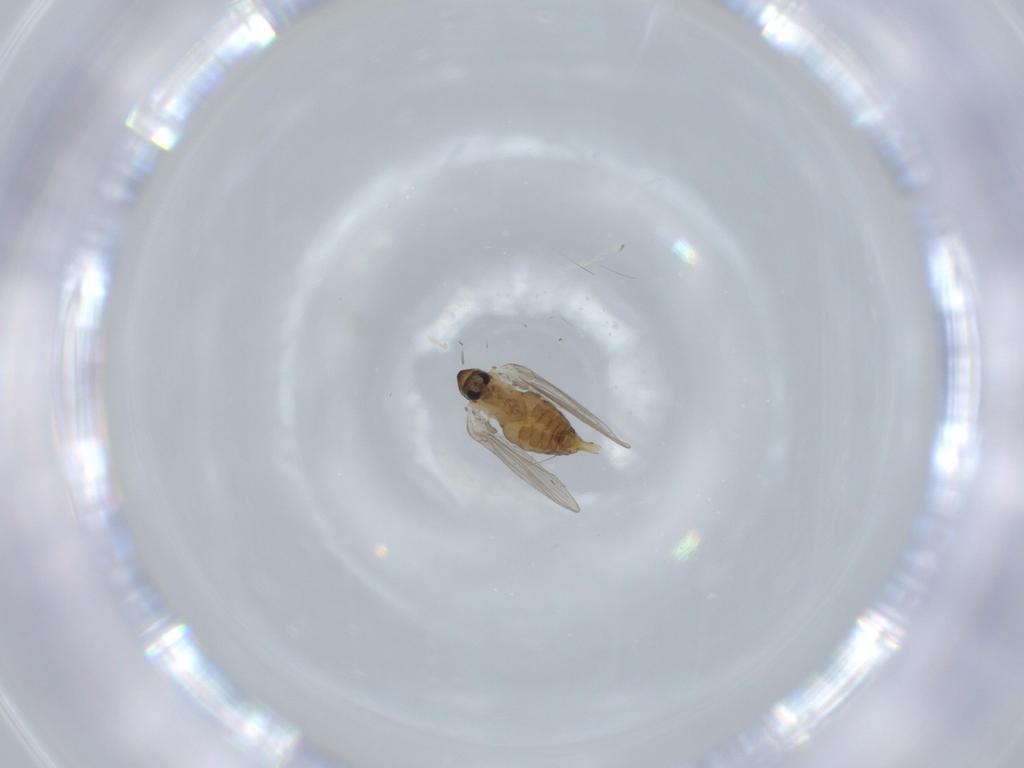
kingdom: Animalia
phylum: Arthropoda
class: Insecta
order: Diptera
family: Psychodidae
